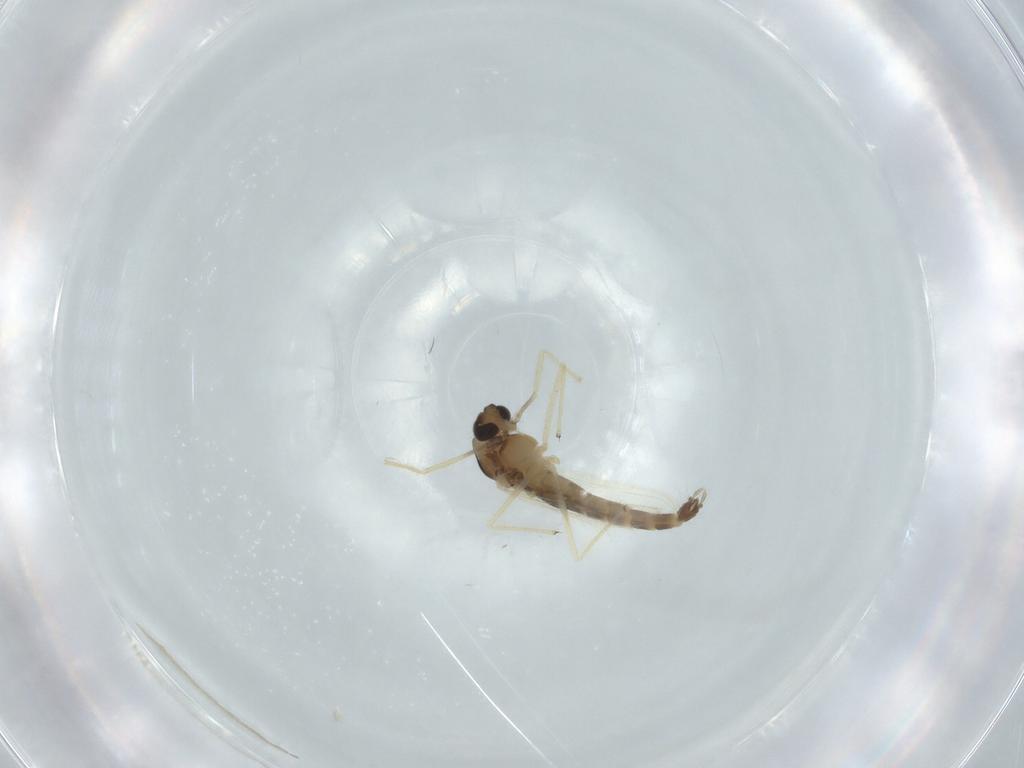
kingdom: Animalia
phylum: Arthropoda
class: Insecta
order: Diptera
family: Chironomidae
